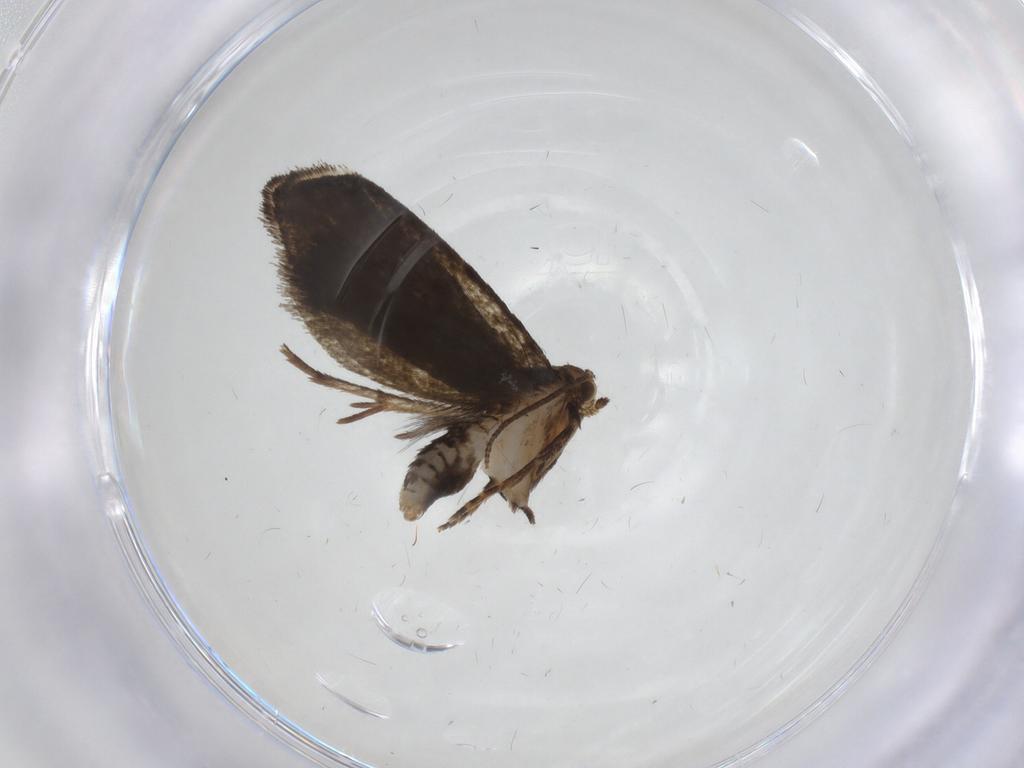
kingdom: Animalia
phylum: Arthropoda
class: Insecta
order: Lepidoptera
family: Tineidae
